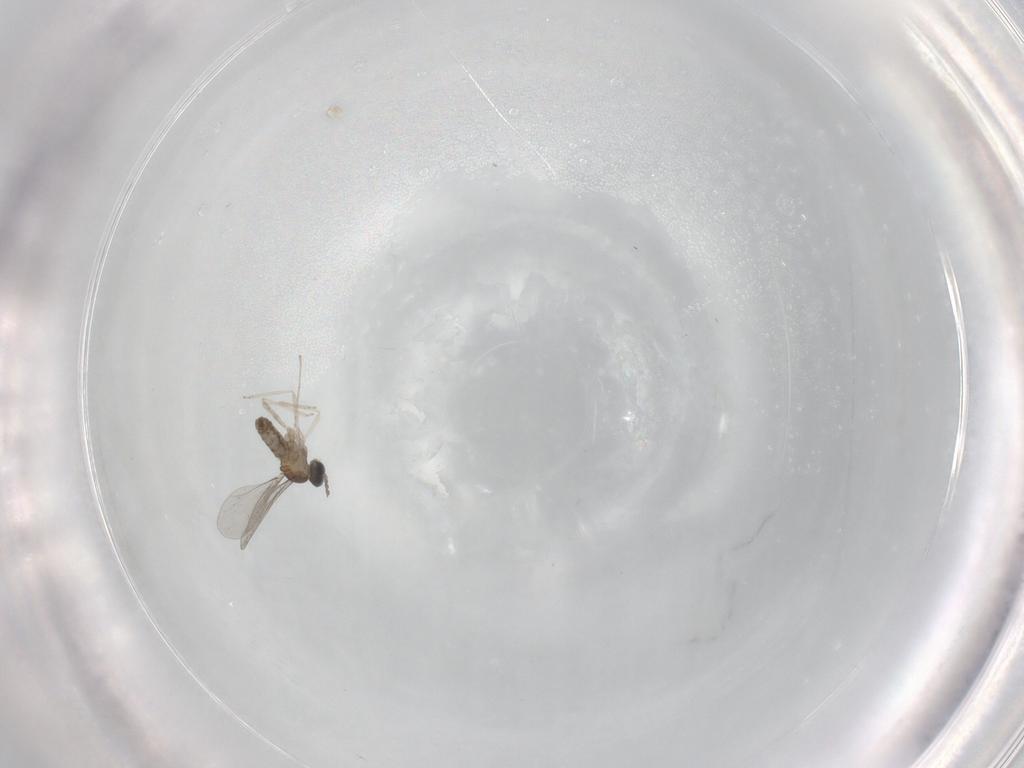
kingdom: Animalia
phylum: Arthropoda
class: Insecta
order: Diptera
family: Cecidomyiidae
